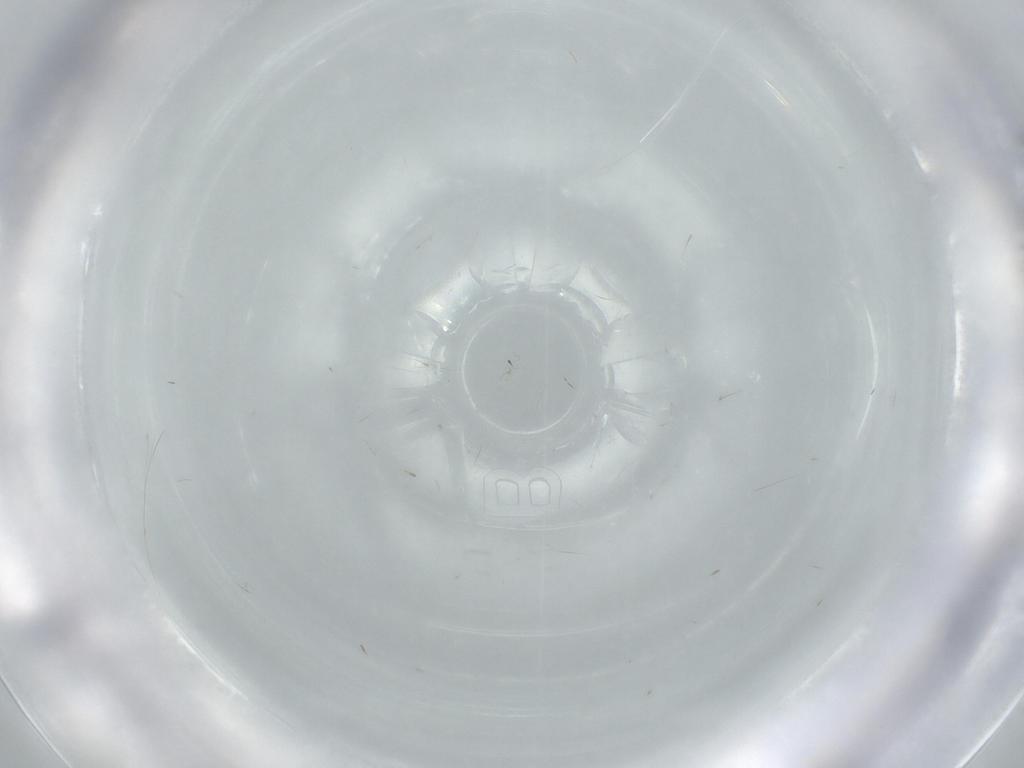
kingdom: Animalia
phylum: Arthropoda
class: Insecta
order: Hymenoptera
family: Aphelinidae
